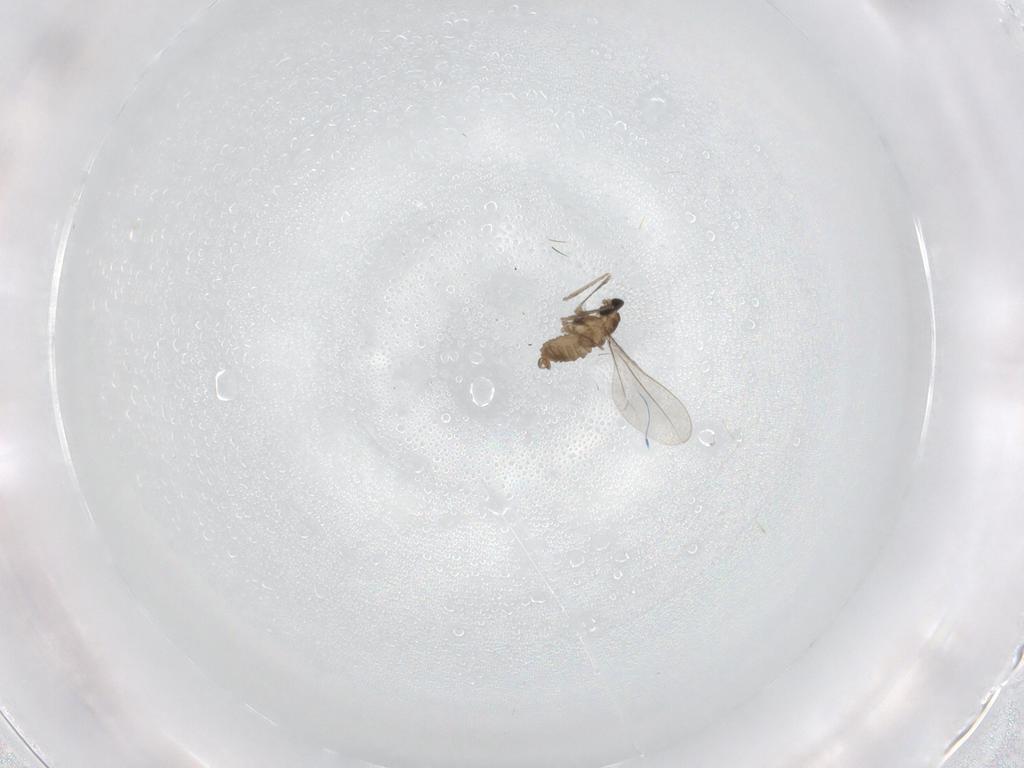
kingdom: Animalia
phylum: Arthropoda
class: Insecta
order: Diptera
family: Cecidomyiidae
